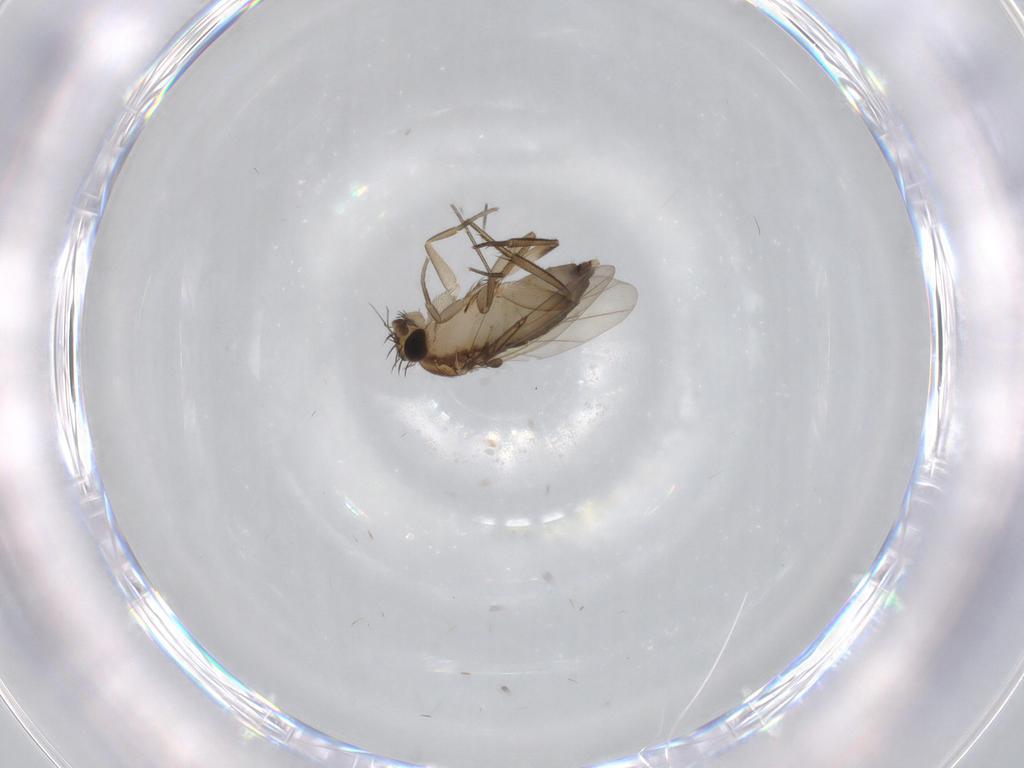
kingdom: Animalia
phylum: Arthropoda
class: Insecta
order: Diptera
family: Phoridae
